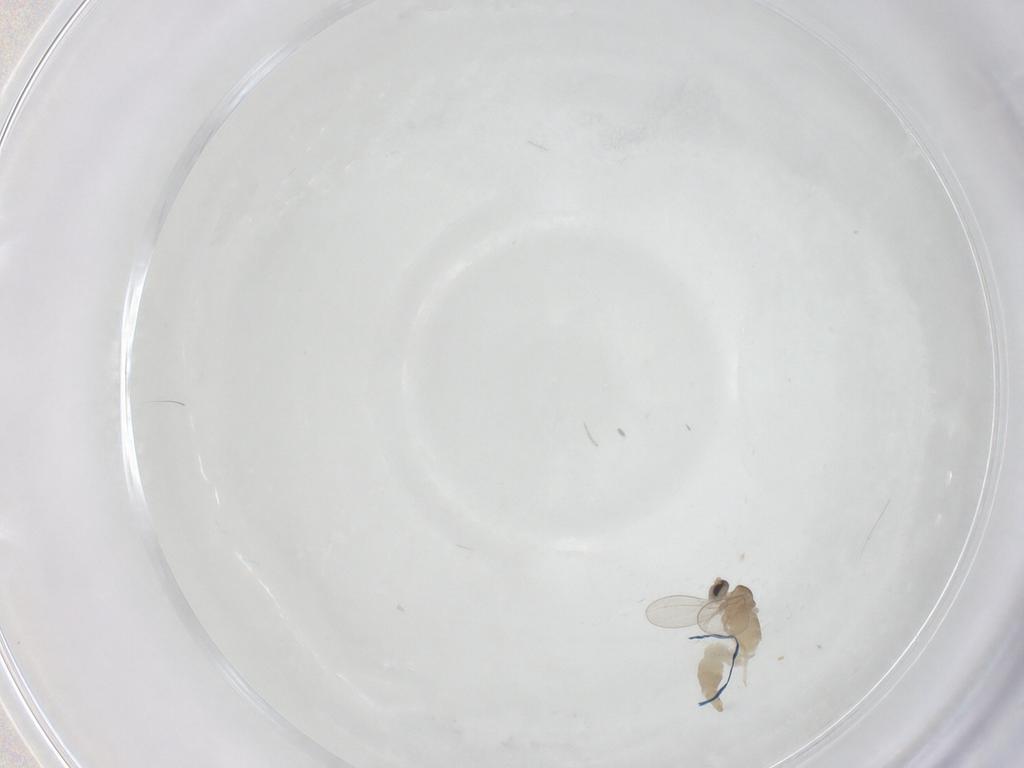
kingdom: Animalia
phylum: Arthropoda
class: Insecta
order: Diptera
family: Cecidomyiidae
